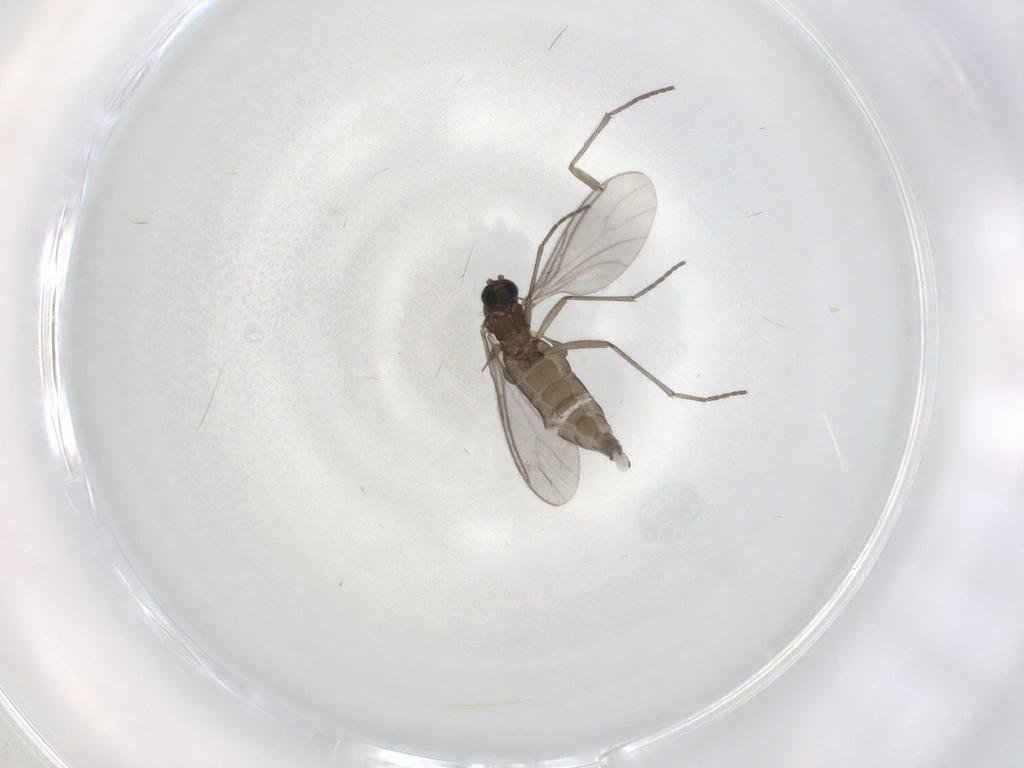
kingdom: Animalia
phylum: Arthropoda
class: Insecta
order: Diptera
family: Sciaridae
